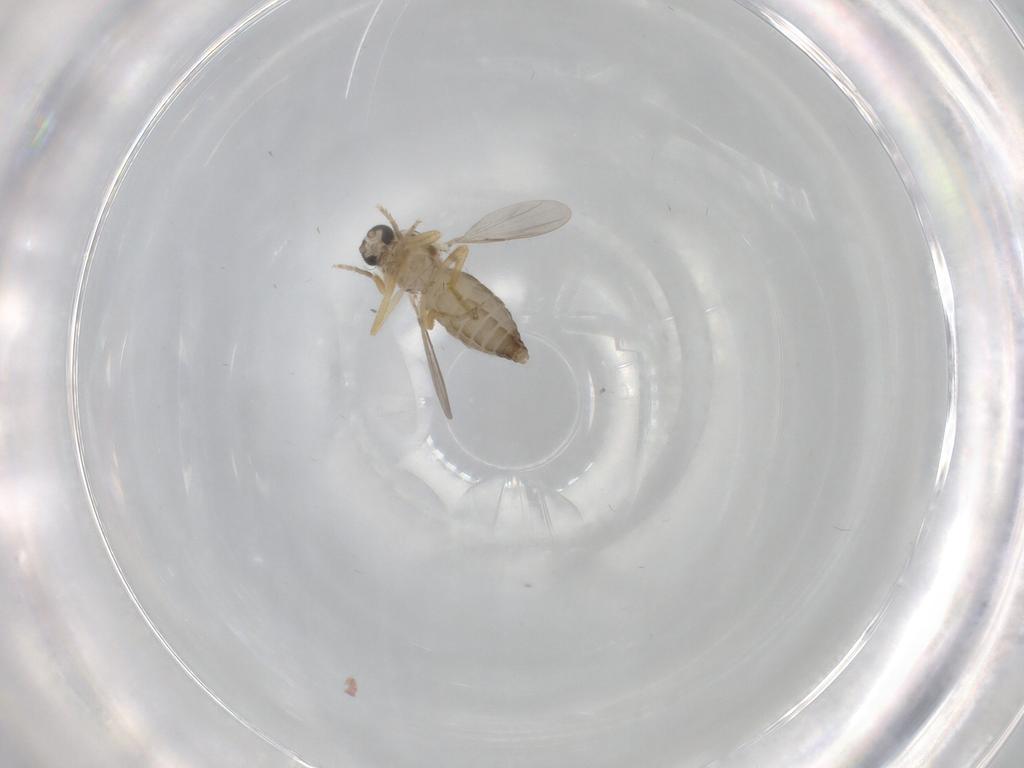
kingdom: Animalia
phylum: Arthropoda
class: Insecta
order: Diptera
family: Ceratopogonidae
